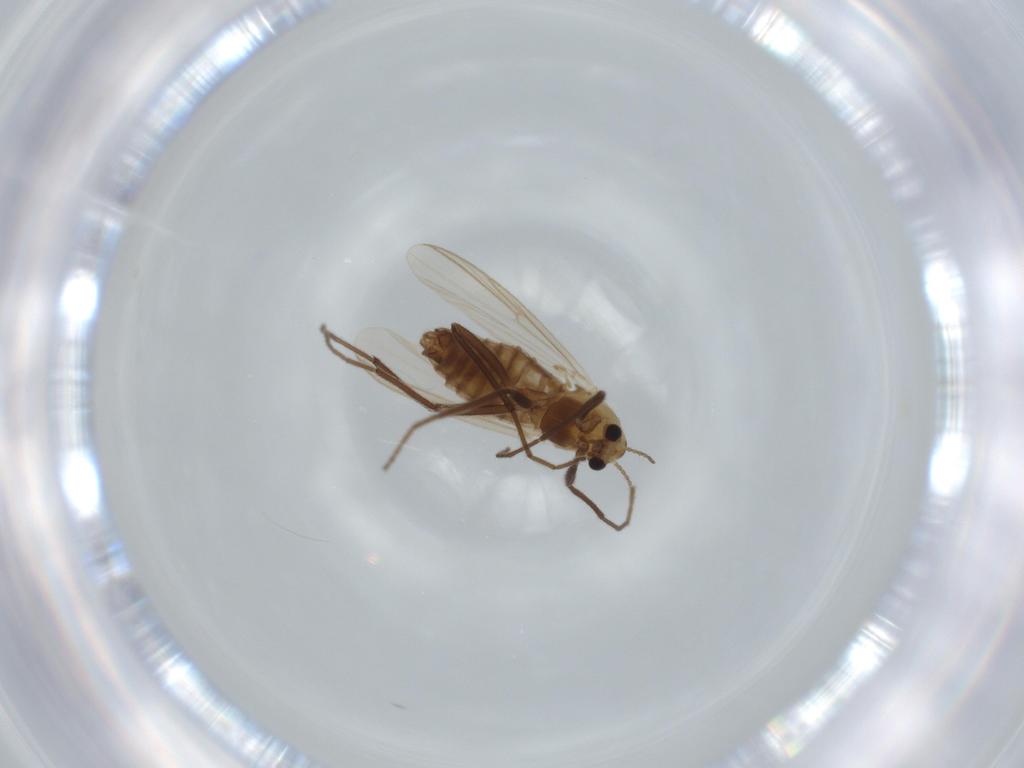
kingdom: Animalia
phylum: Arthropoda
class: Insecta
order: Diptera
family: Chironomidae
